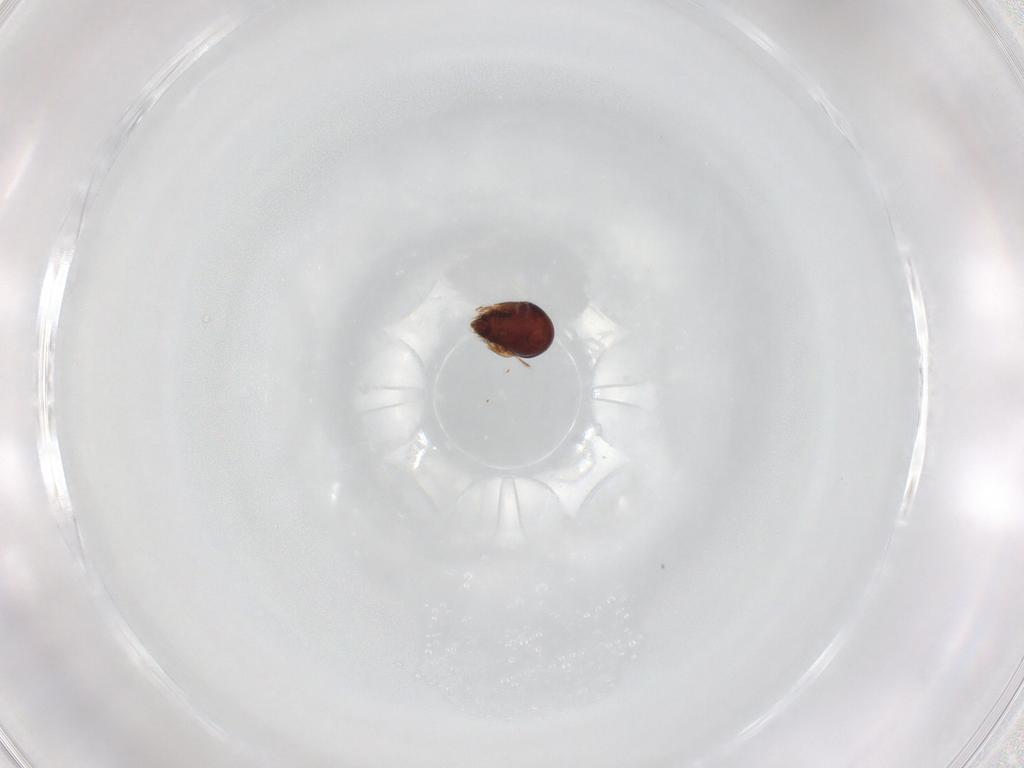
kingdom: Animalia
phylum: Arthropoda
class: Arachnida
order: Sarcoptiformes
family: Humerobatidae
